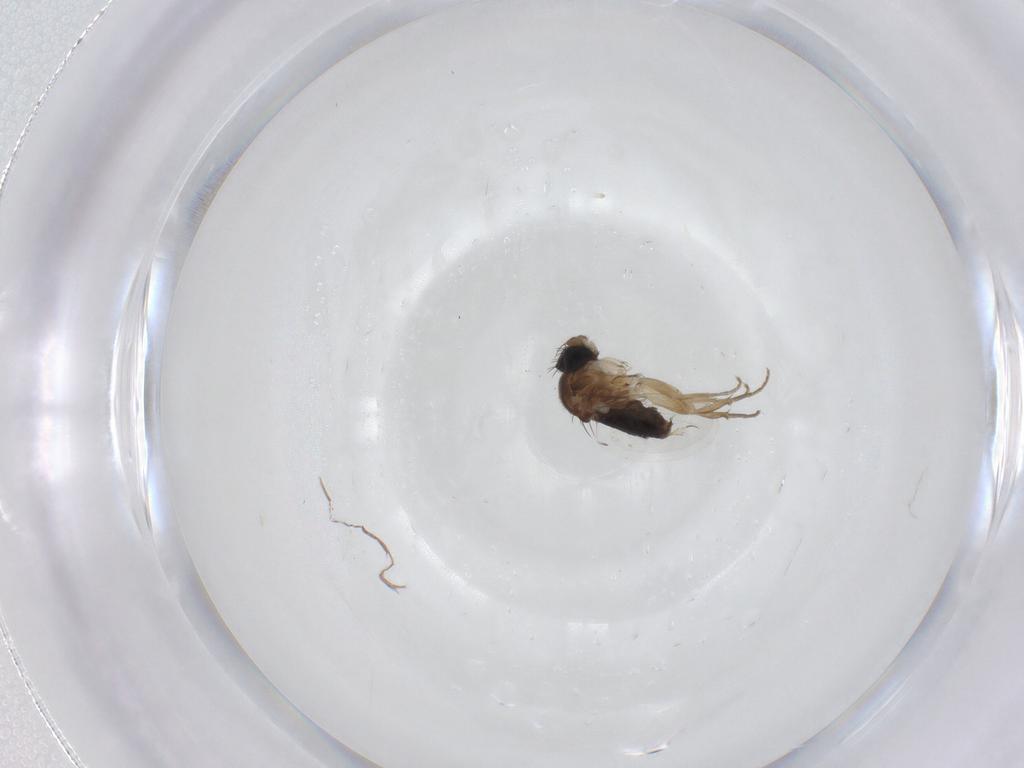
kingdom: Animalia
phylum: Arthropoda
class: Insecta
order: Diptera
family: Phoridae
